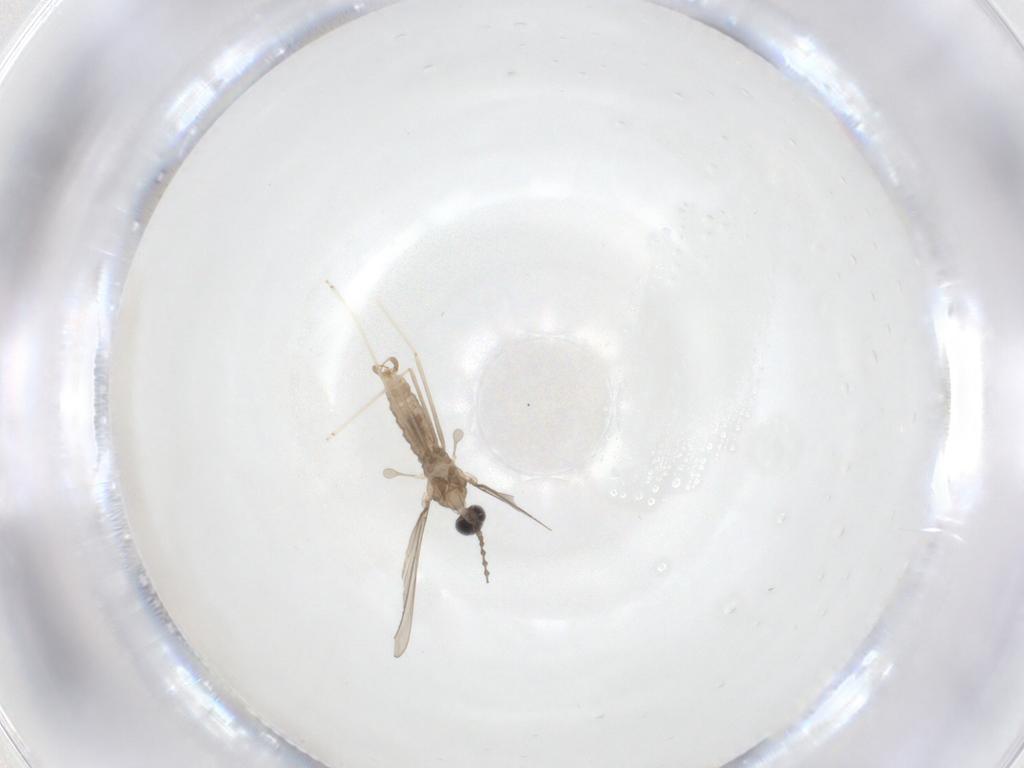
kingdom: Animalia
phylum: Arthropoda
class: Insecta
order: Diptera
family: Cecidomyiidae
